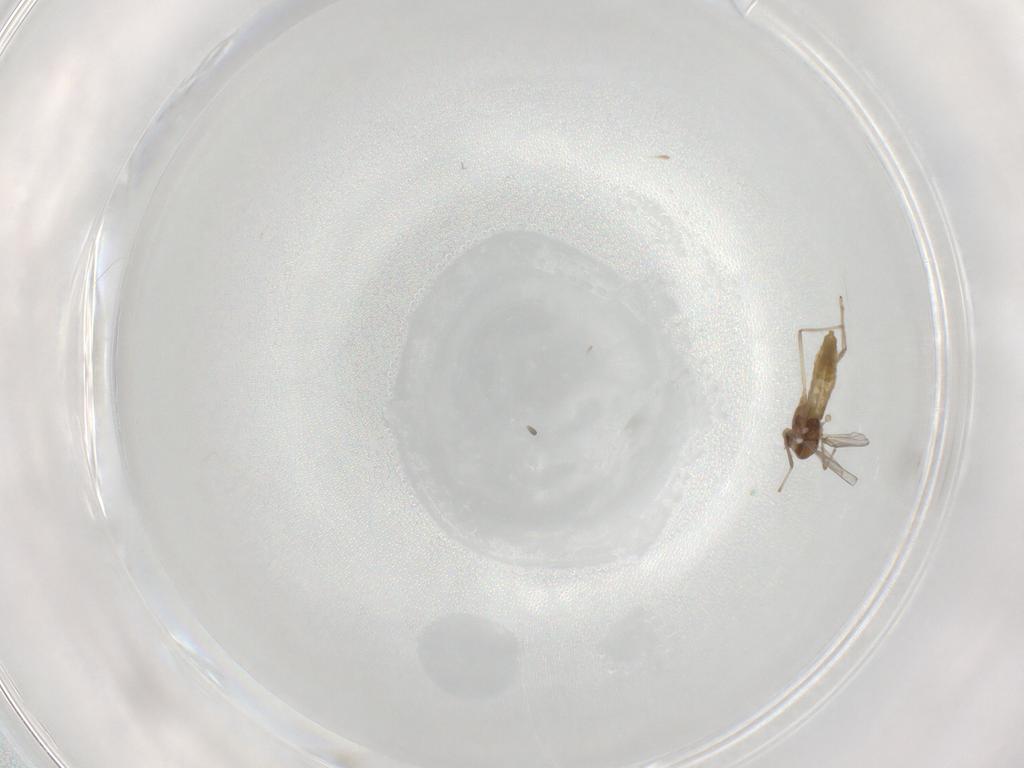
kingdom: Animalia
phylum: Arthropoda
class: Insecta
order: Diptera
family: Chironomidae
